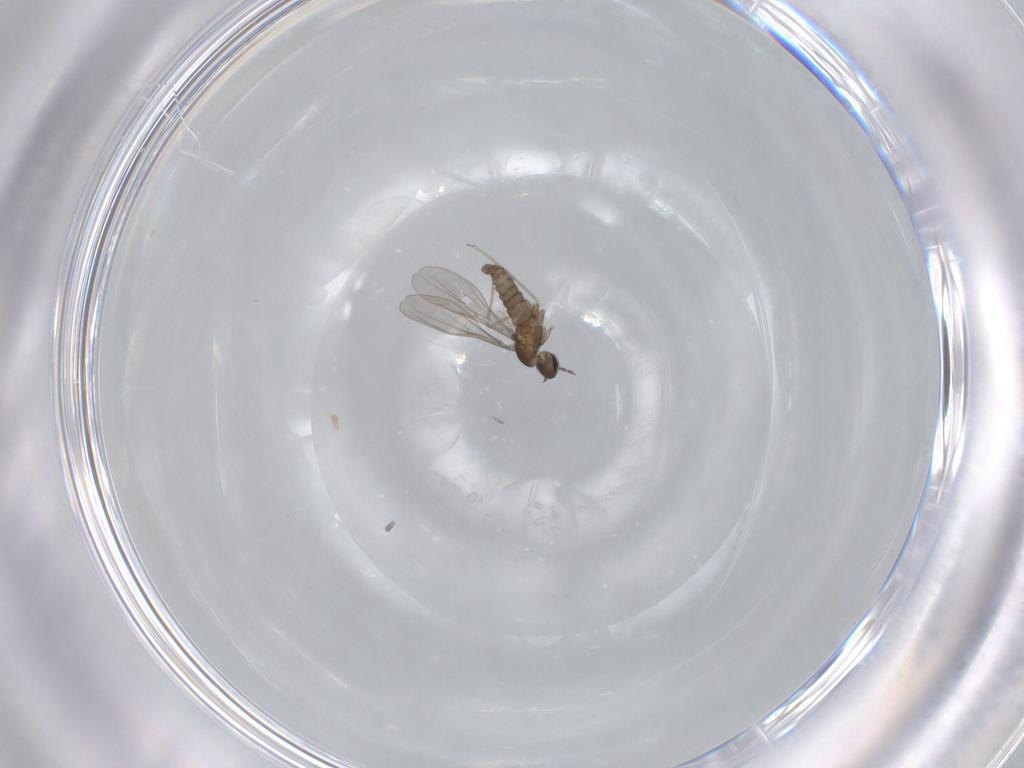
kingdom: Animalia
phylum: Arthropoda
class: Insecta
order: Diptera
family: Cecidomyiidae
